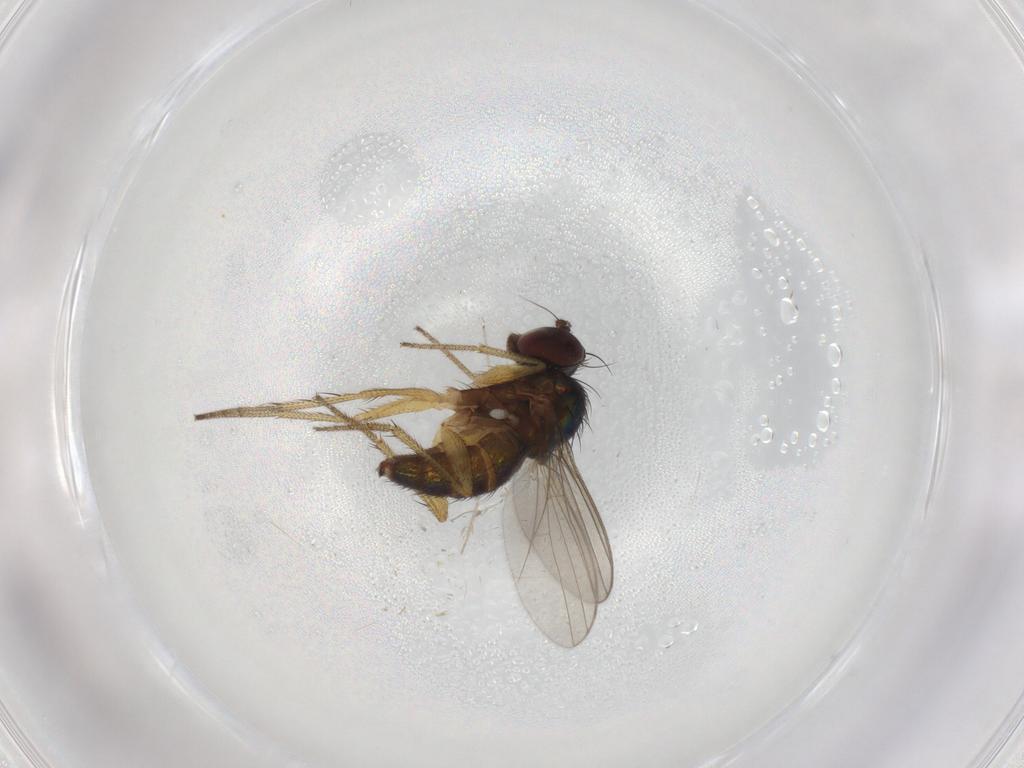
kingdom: Animalia
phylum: Arthropoda
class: Insecta
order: Diptera
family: Dolichopodidae
